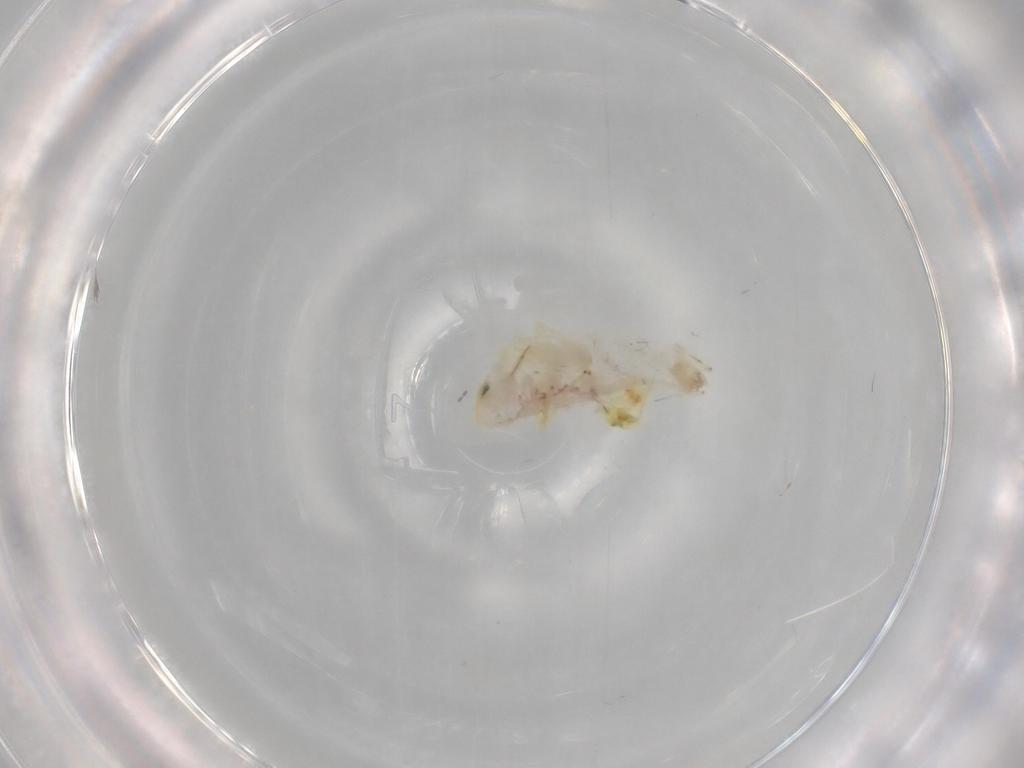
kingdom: Animalia
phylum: Arthropoda
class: Insecta
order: Hemiptera
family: Cicadellidae
